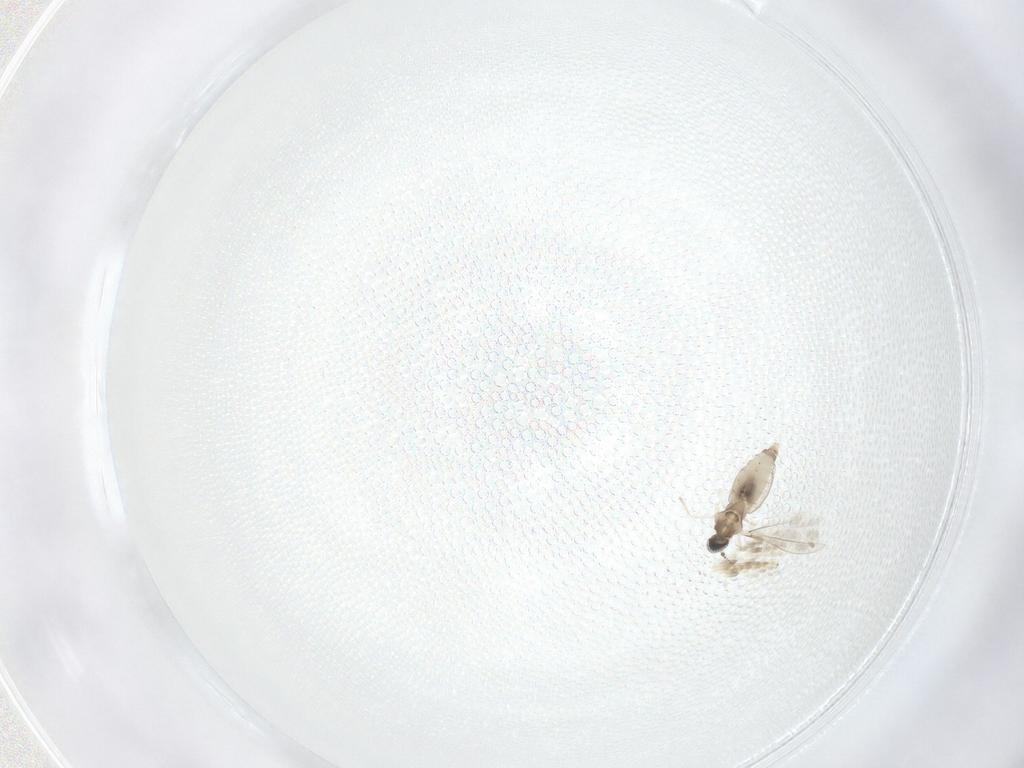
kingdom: Animalia
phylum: Arthropoda
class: Insecta
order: Diptera
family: Cecidomyiidae
